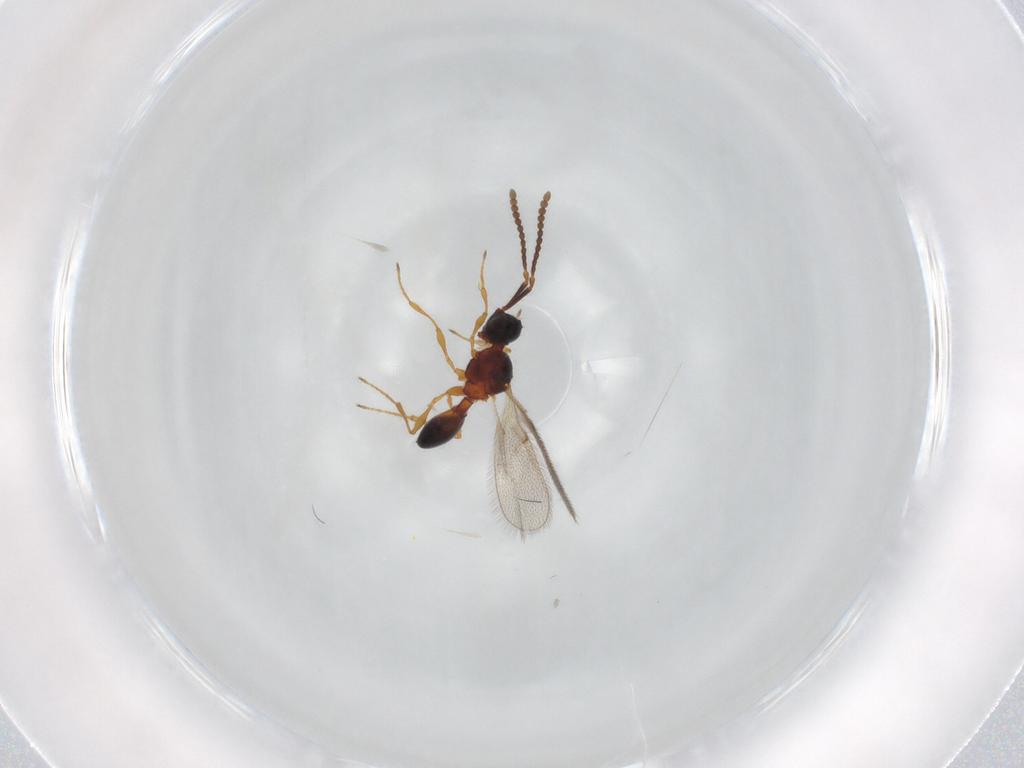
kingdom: Animalia
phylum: Arthropoda
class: Insecta
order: Hymenoptera
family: Diapriidae
